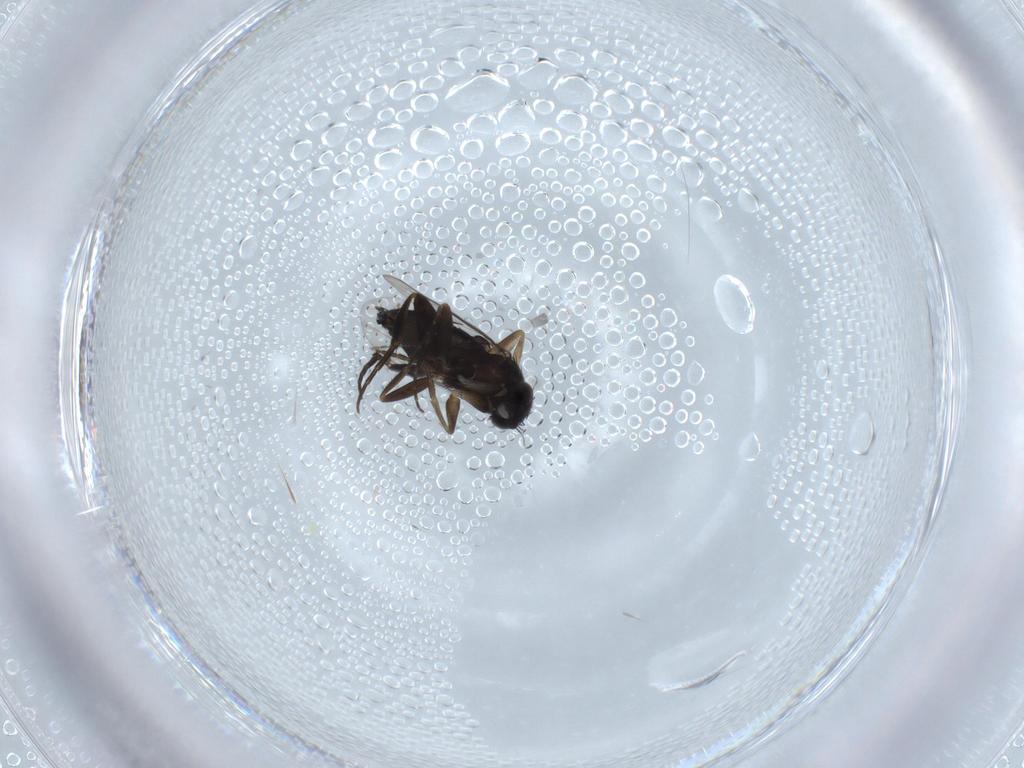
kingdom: Animalia
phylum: Arthropoda
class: Insecta
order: Diptera
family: Phoridae
